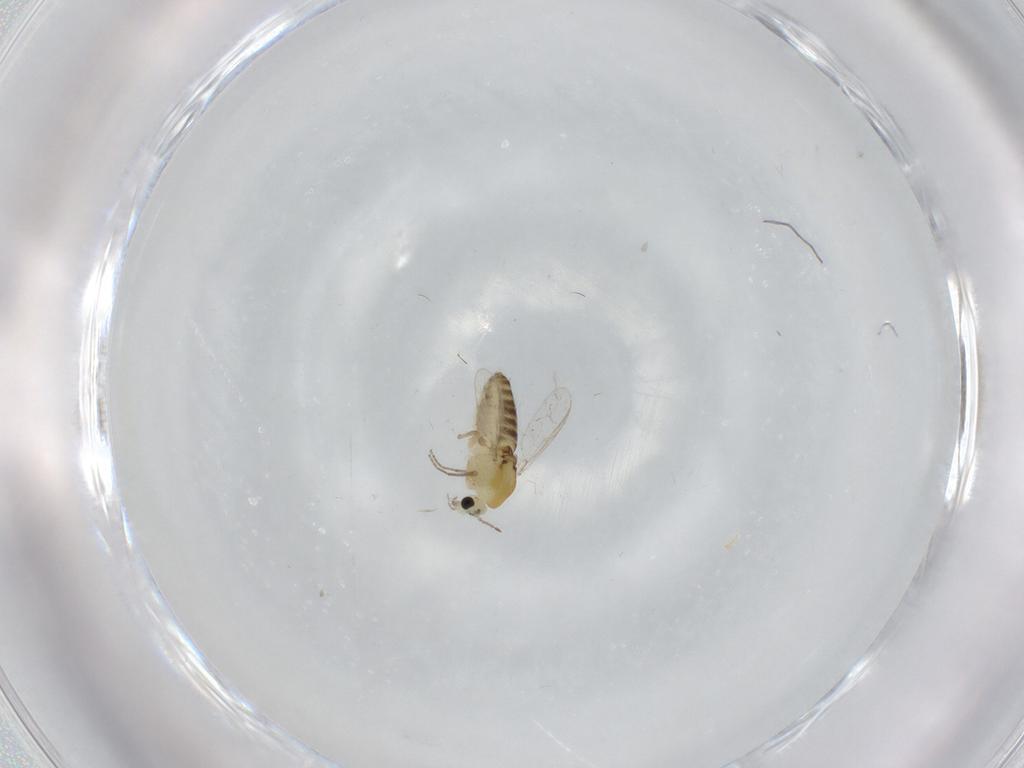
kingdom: Animalia
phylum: Arthropoda
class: Insecta
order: Diptera
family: Chironomidae
